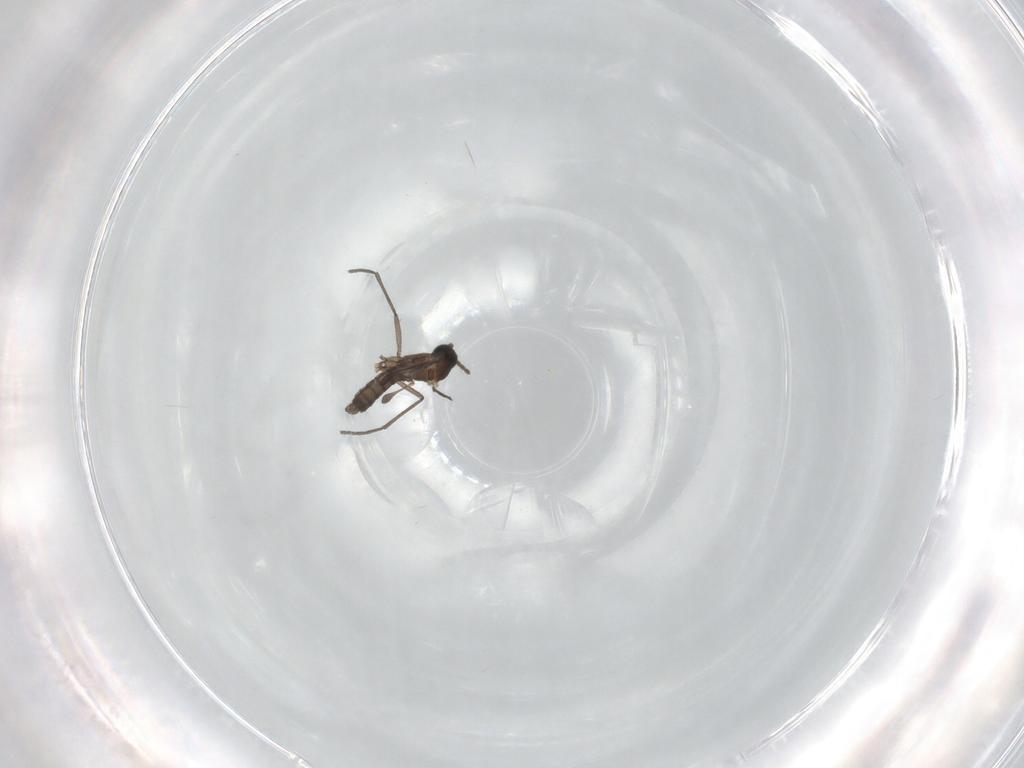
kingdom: Animalia
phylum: Arthropoda
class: Insecta
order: Diptera
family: Sciaridae
